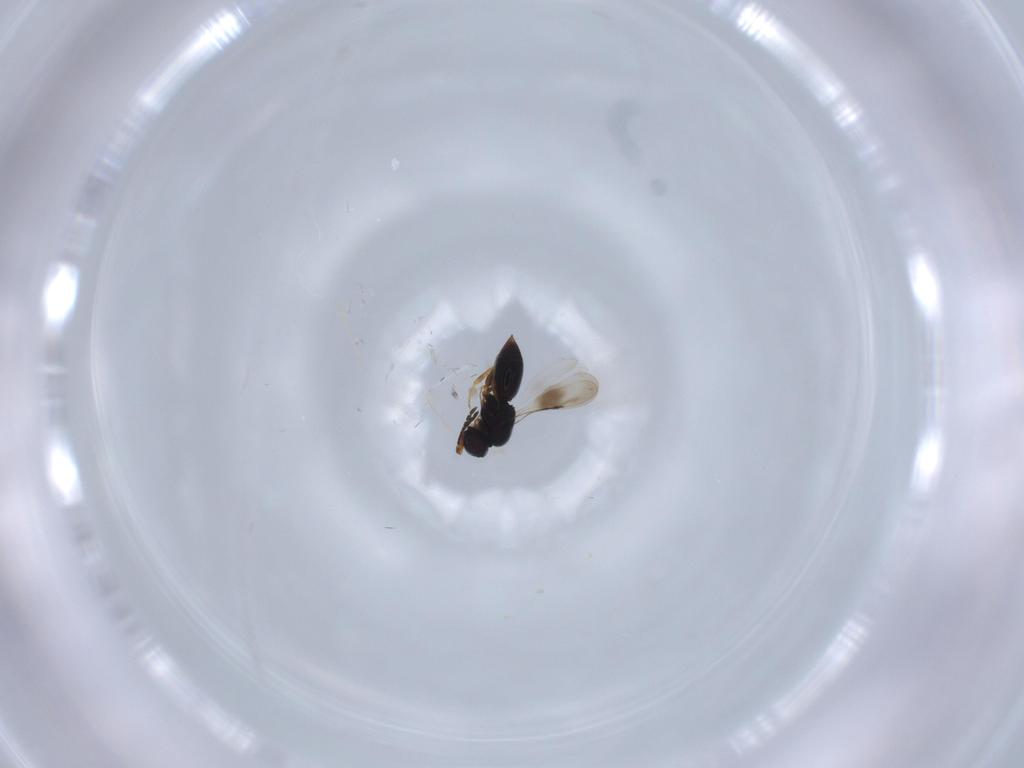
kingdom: Animalia
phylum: Arthropoda
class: Insecta
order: Hymenoptera
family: Ceraphronidae
